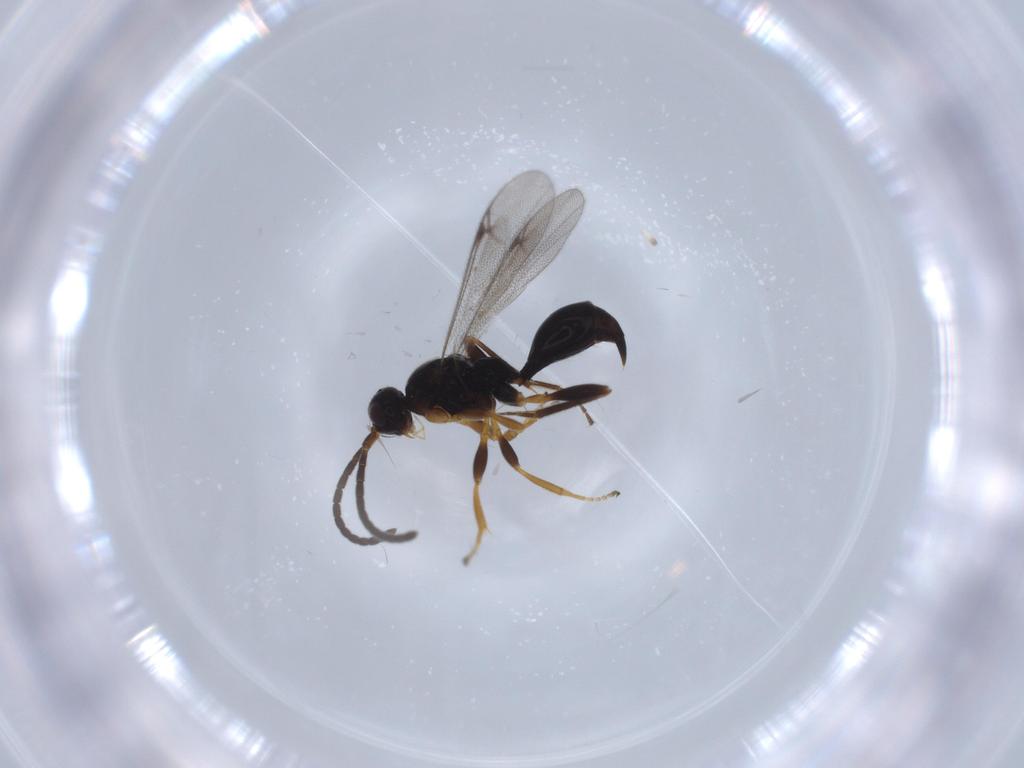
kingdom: Animalia
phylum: Arthropoda
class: Insecta
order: Hymenoptera
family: Proctotrupidae
